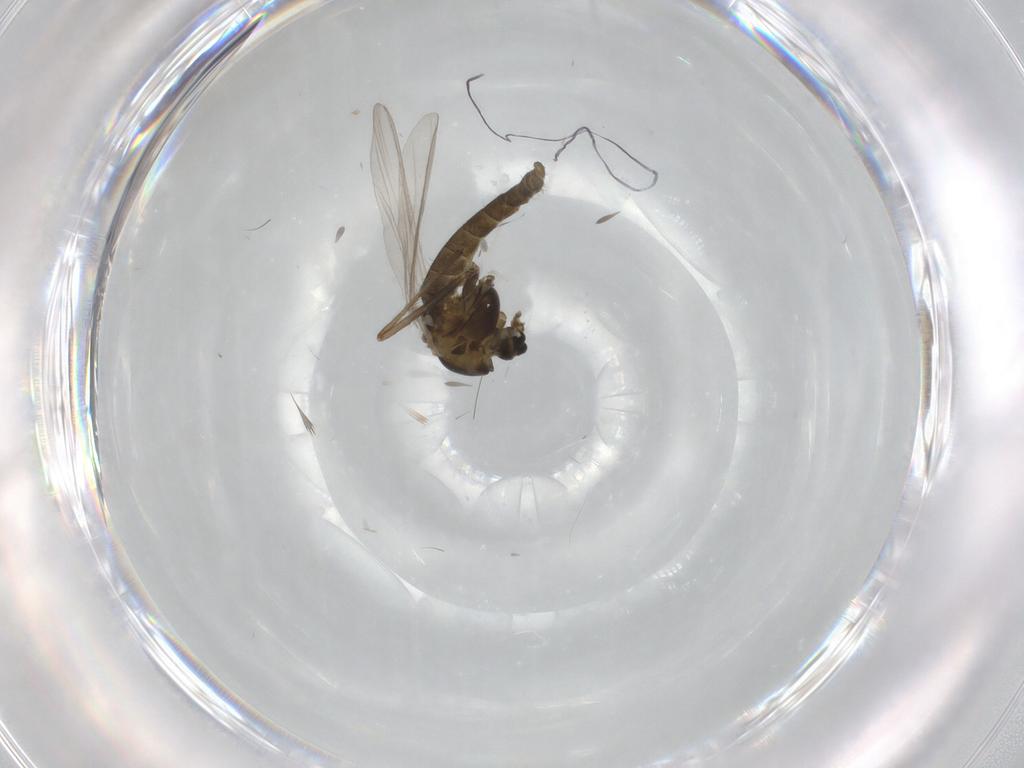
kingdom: Animalia
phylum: Arthropoda
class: Insecta
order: Diptera
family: Chironomidae
